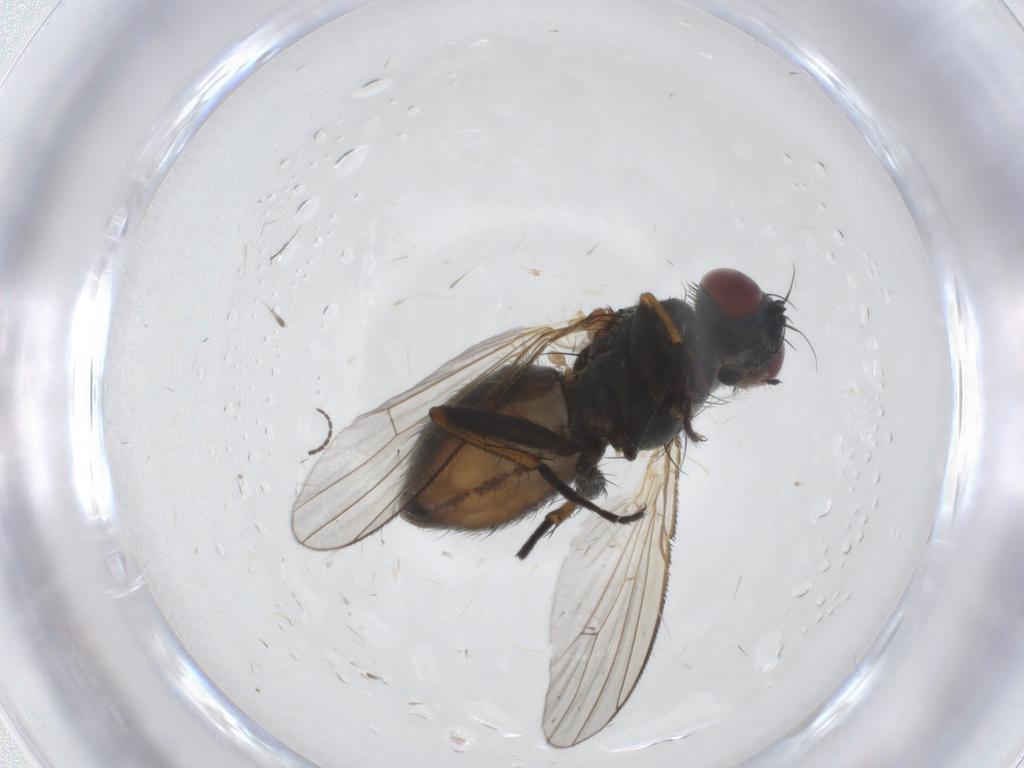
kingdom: Animalia
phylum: Arthropoda
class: Insecta
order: Diptera
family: Muscidae
